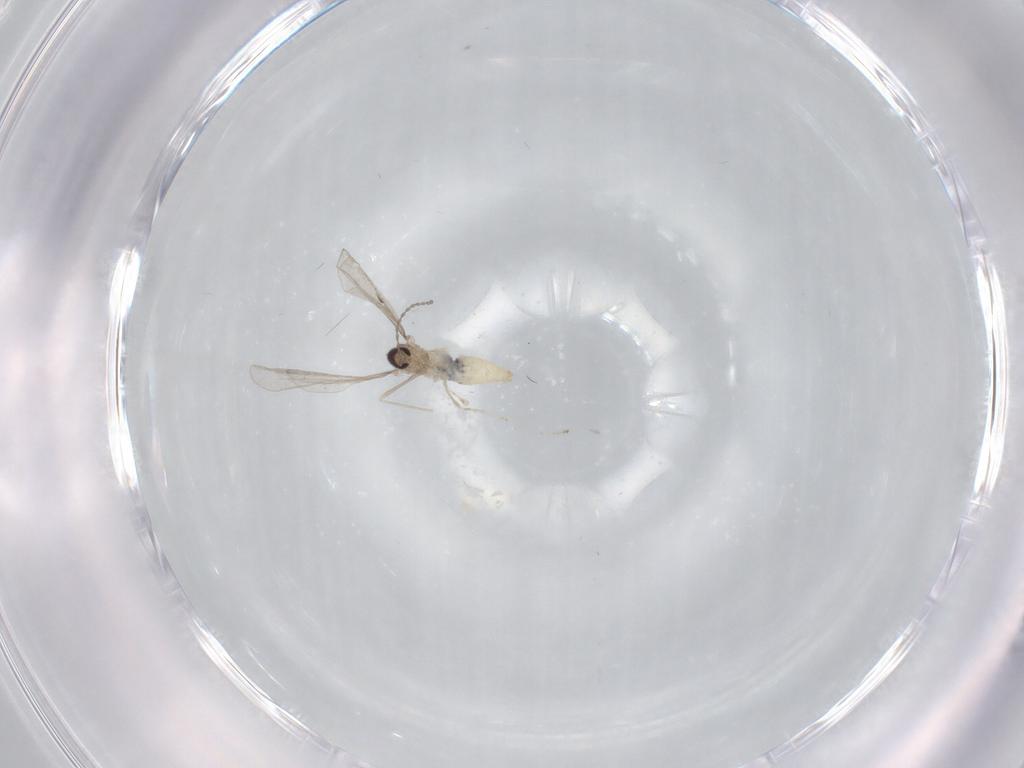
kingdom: Animalia
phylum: Arthropoda
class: Insecta
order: Diptera
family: Cecidomyiidae
